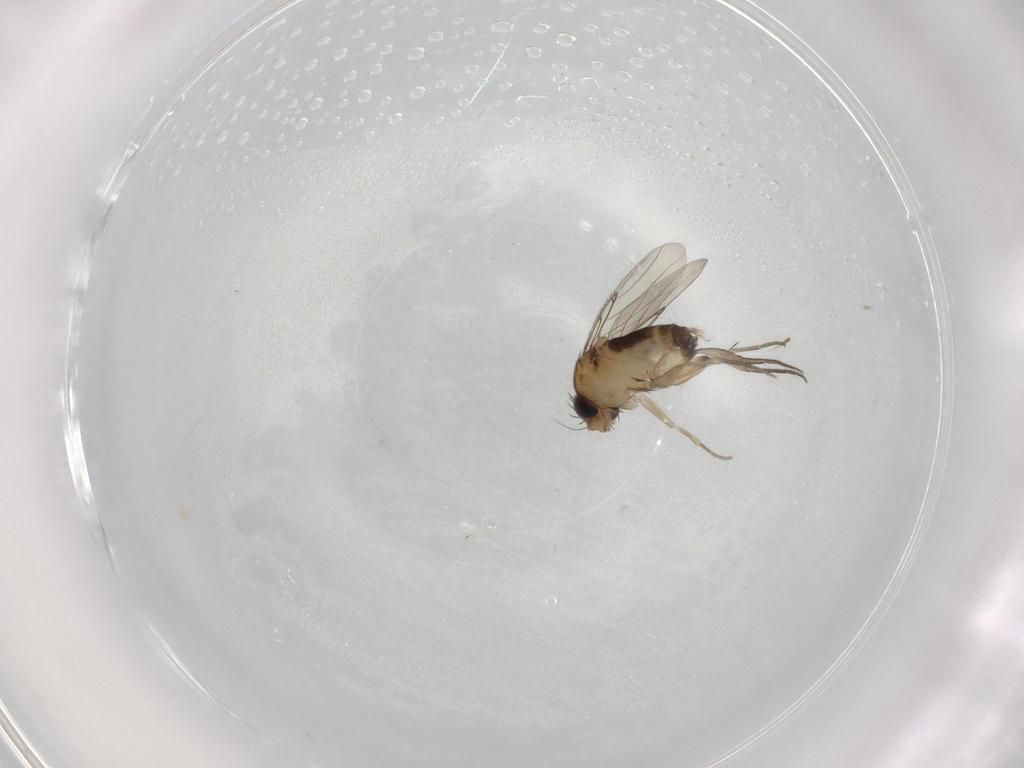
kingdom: Animalia
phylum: Arthropoda
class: Insecta
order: Diptera
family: Phoridae
